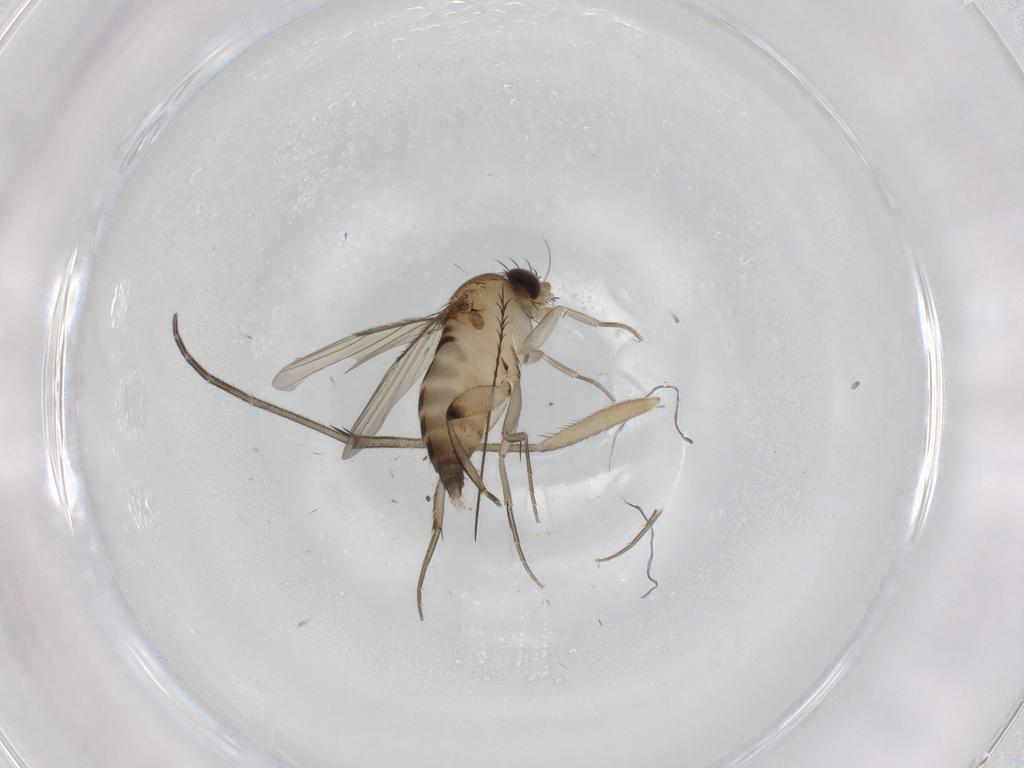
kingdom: Animalia
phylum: Arthropoda
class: Insecta
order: Diptera
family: Keroplatidae
